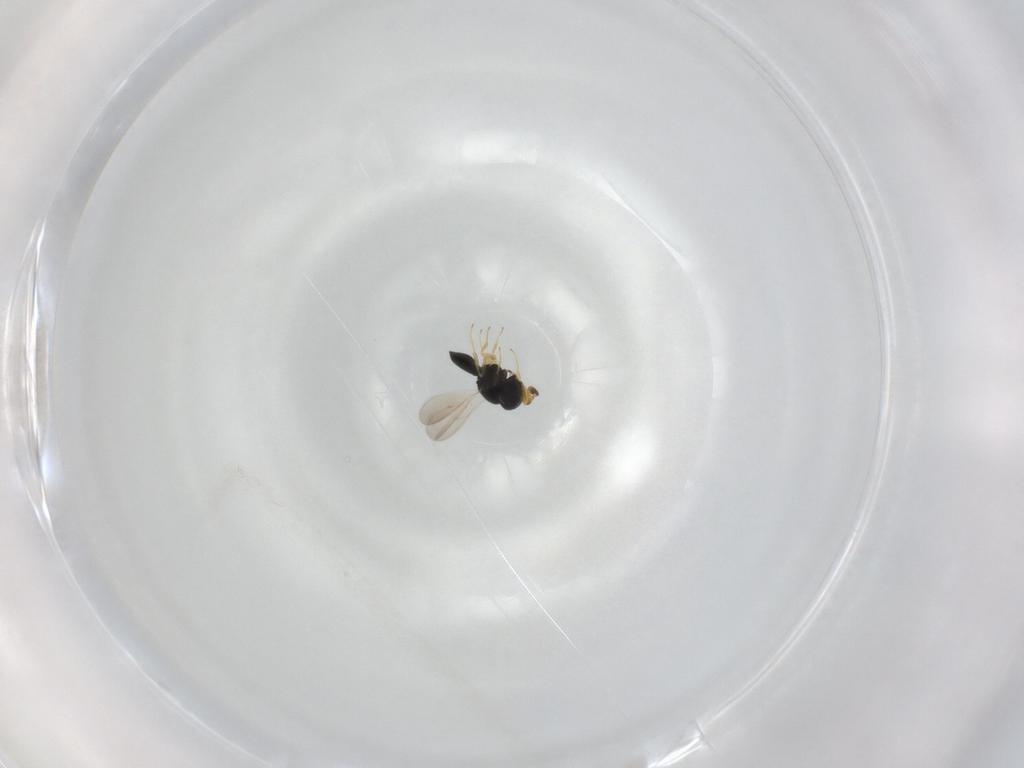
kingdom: Animalia
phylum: Arthropoda
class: Insecta
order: Hymenoptera
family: Scelionidae
